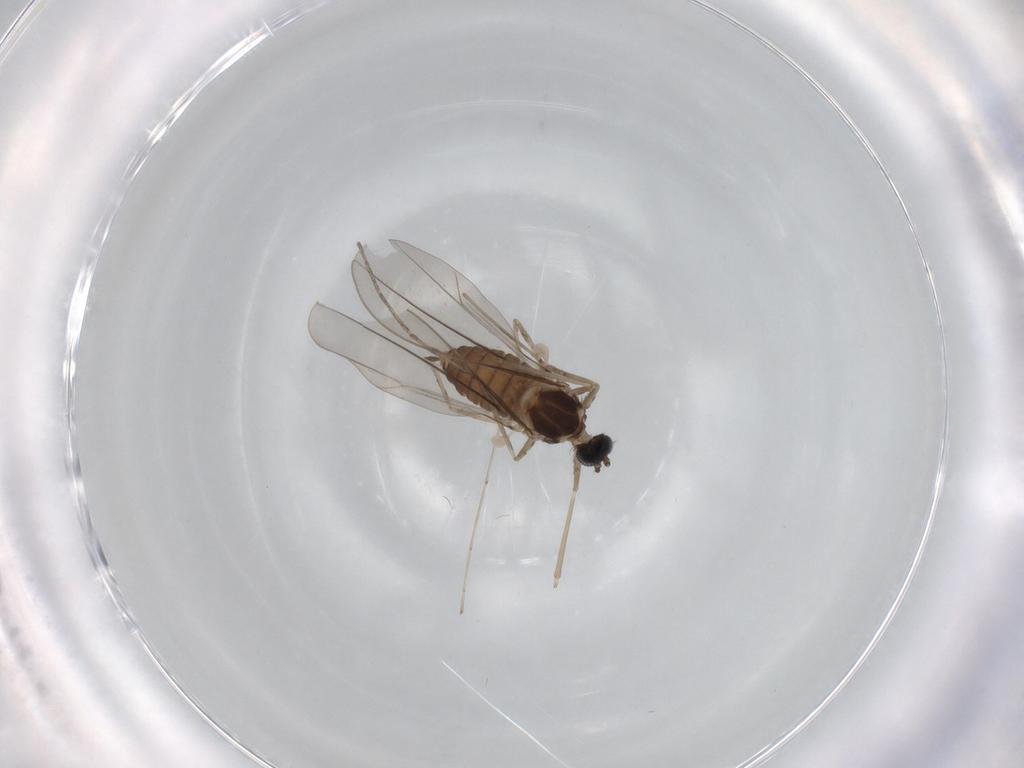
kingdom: Animalia
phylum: Arthropoda
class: Insecta
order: Diptera
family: Cecidomyiidae
